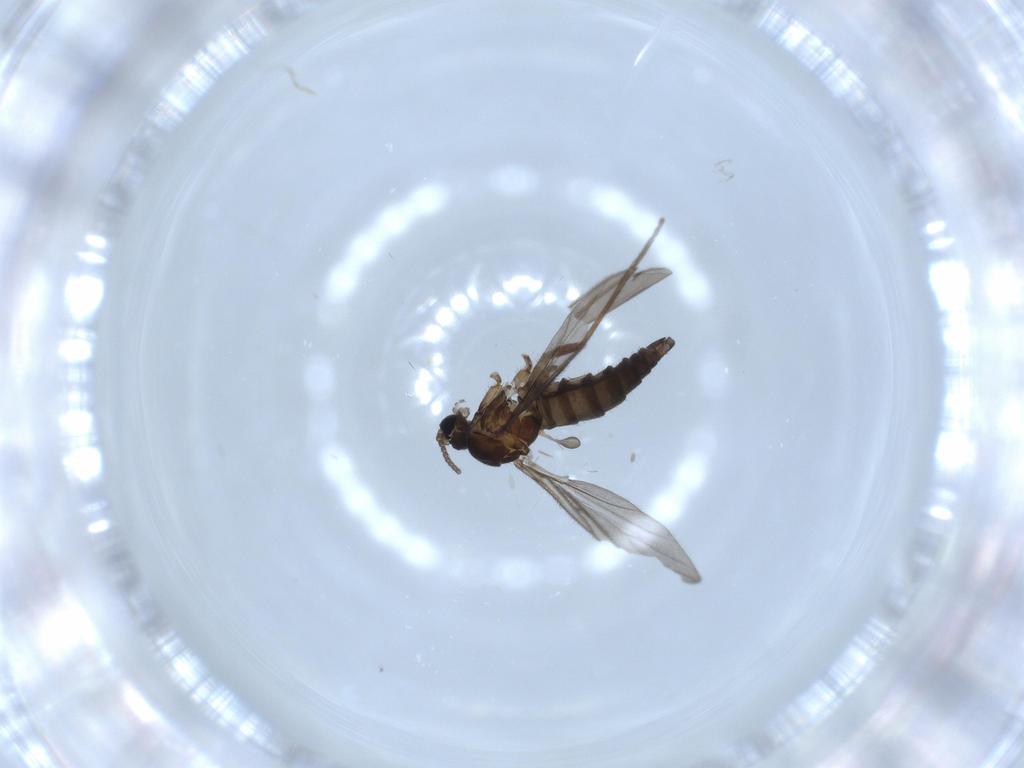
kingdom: Animalia
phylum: Arthropoda
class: Insecta
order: Diptera
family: Sciaridae
